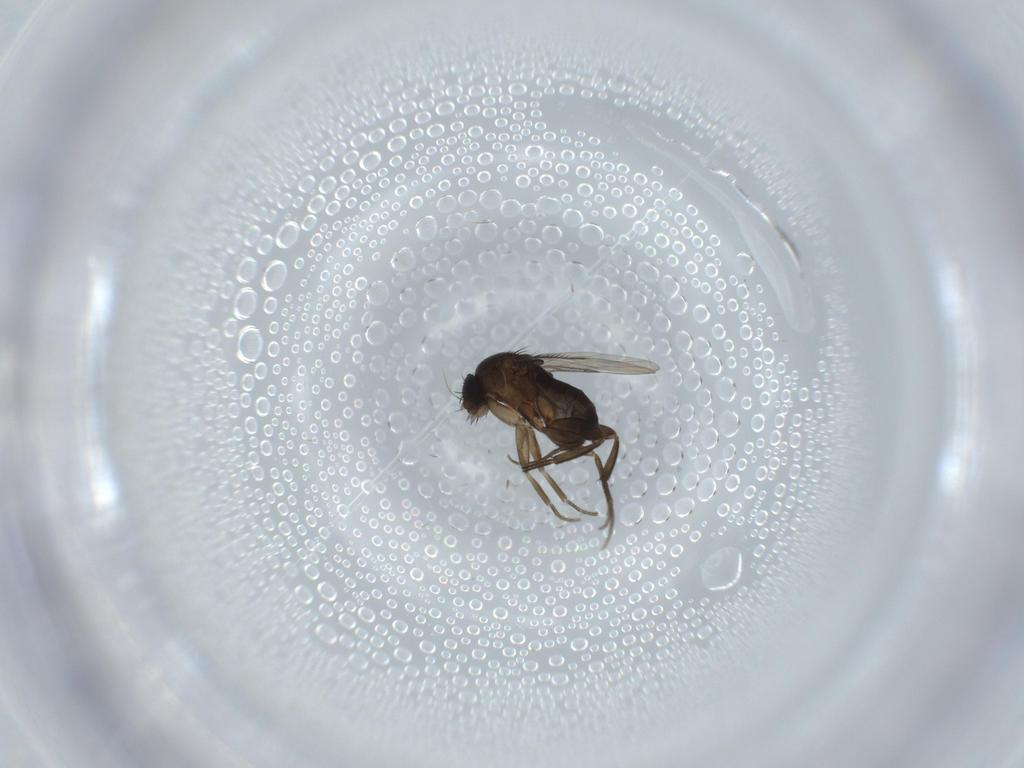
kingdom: Animalia
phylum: Arthropoda
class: Insecta
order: Diptera
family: Phoridae
